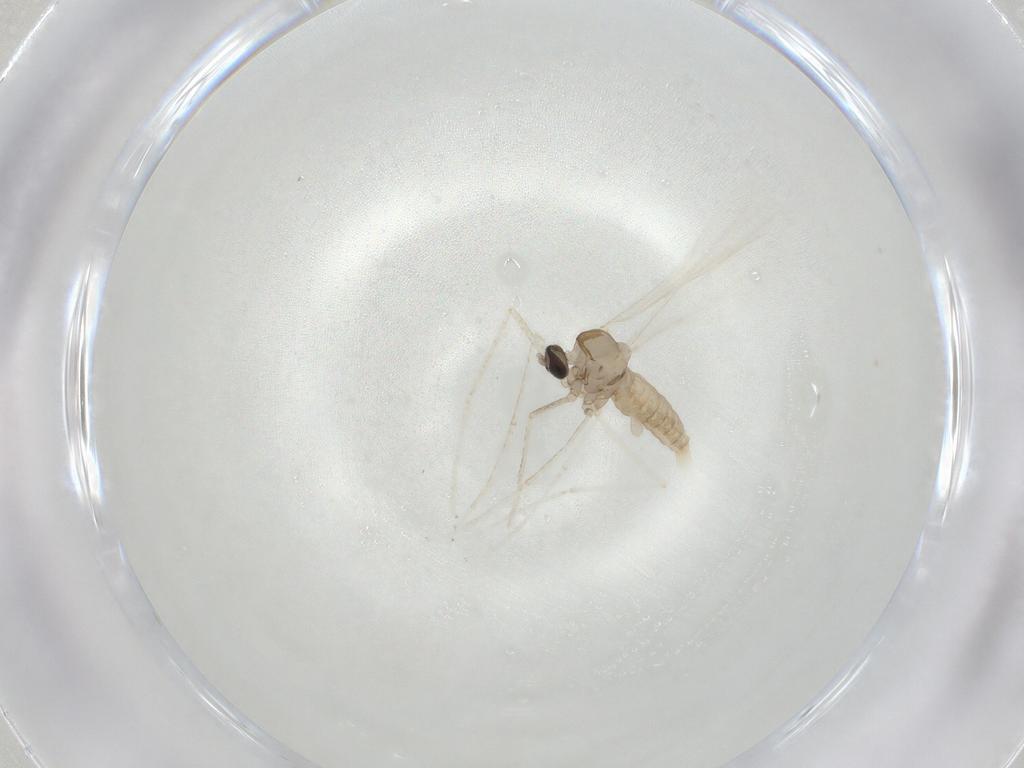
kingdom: Animalia
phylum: Arthropoda
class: Insecta
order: Diptera
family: Cecidomyiidae
